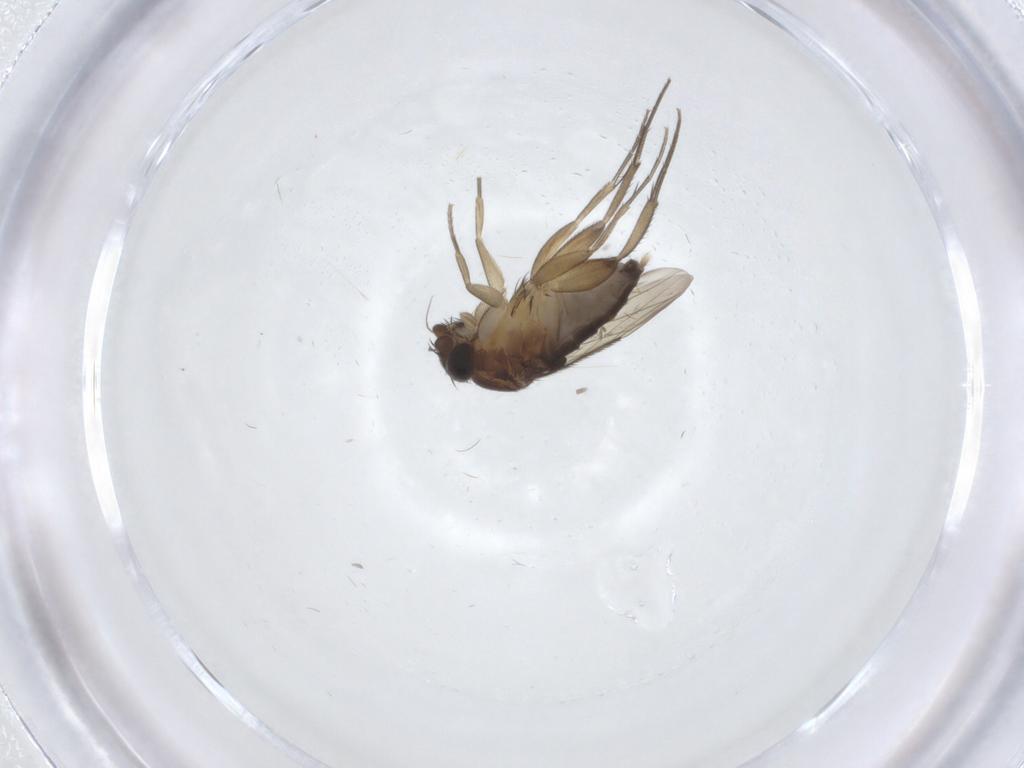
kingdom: Animalia
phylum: Arthropoda
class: Insecta
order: Diptera
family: Phoridae
